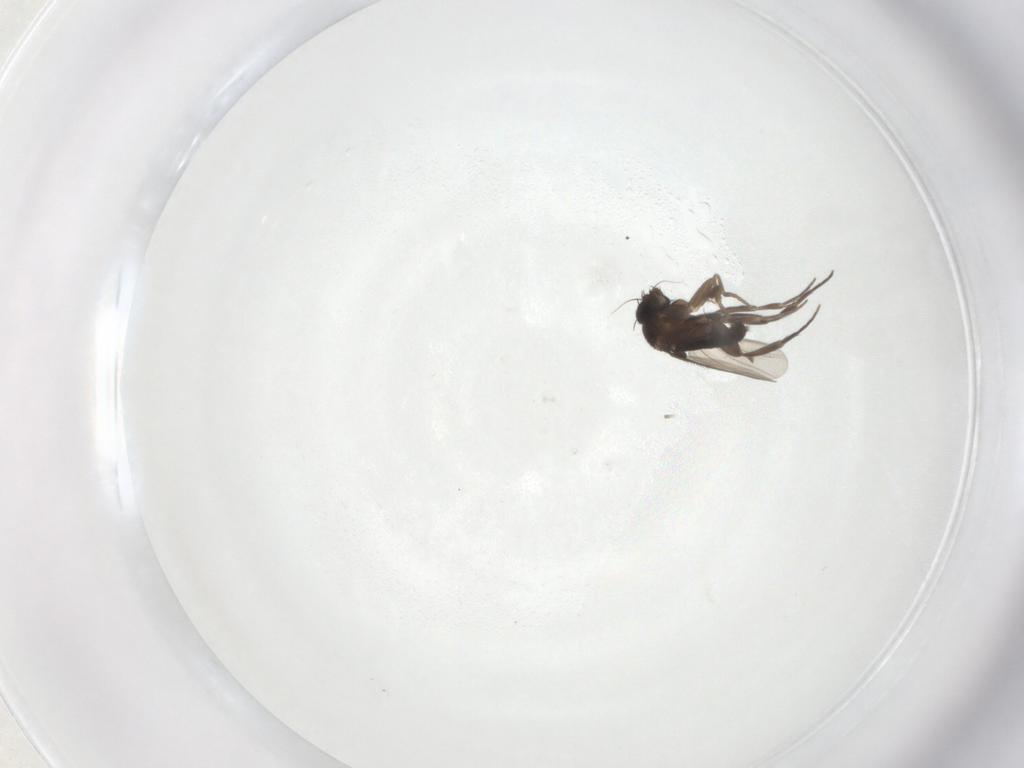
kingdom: Animalia
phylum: Arthropoda
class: Insecta
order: Diptera
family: Phoridae
